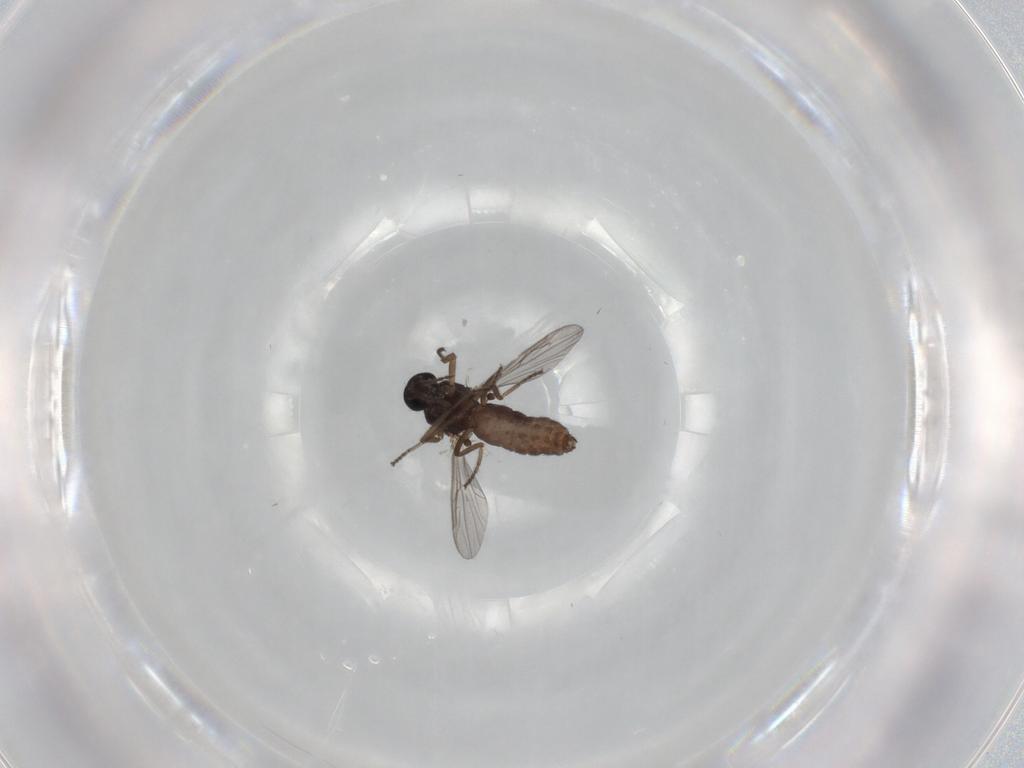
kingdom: Animalia
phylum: Arthropoda
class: Insecta
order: Diptera
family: Ceratopogonidae
